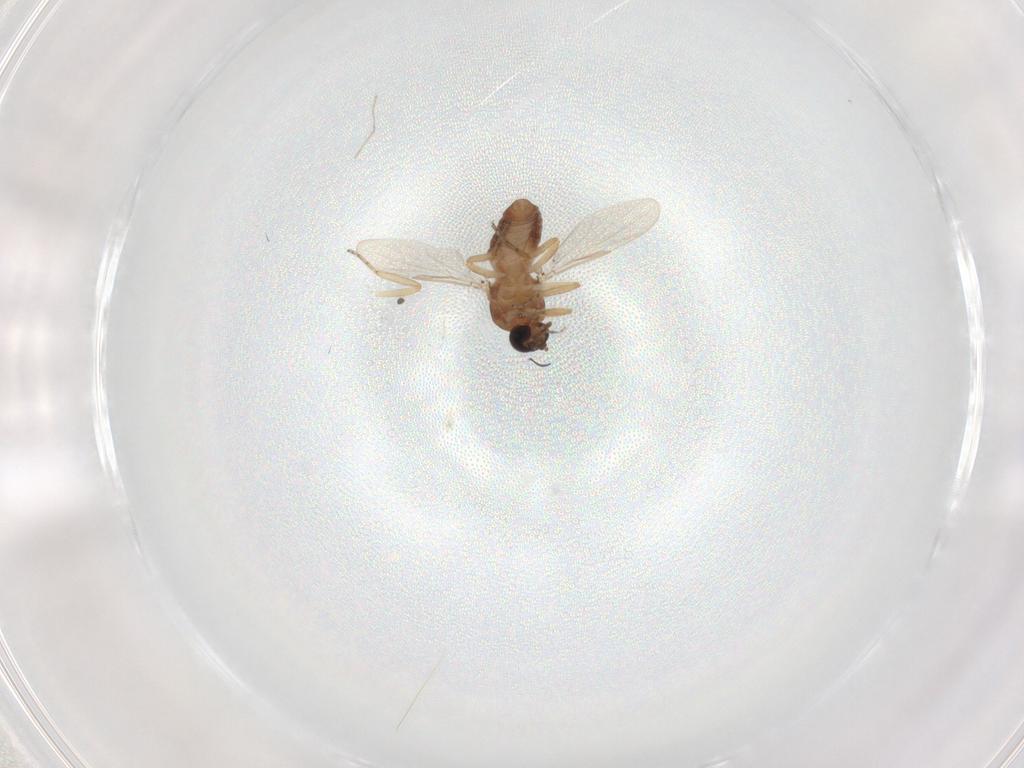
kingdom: Animalia
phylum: Arthropoda
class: Insecta
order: Diptera
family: Ceratopogonidae
